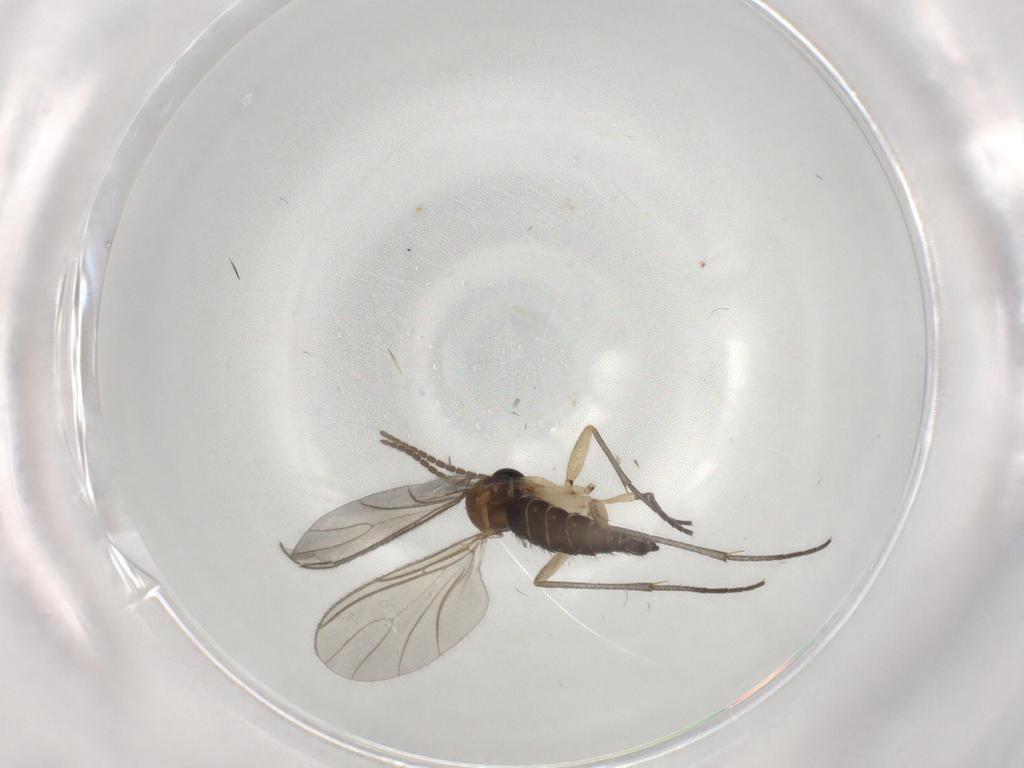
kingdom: Animalia
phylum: Arthropoda
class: Insecta
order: Diptera
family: Sciaridae
